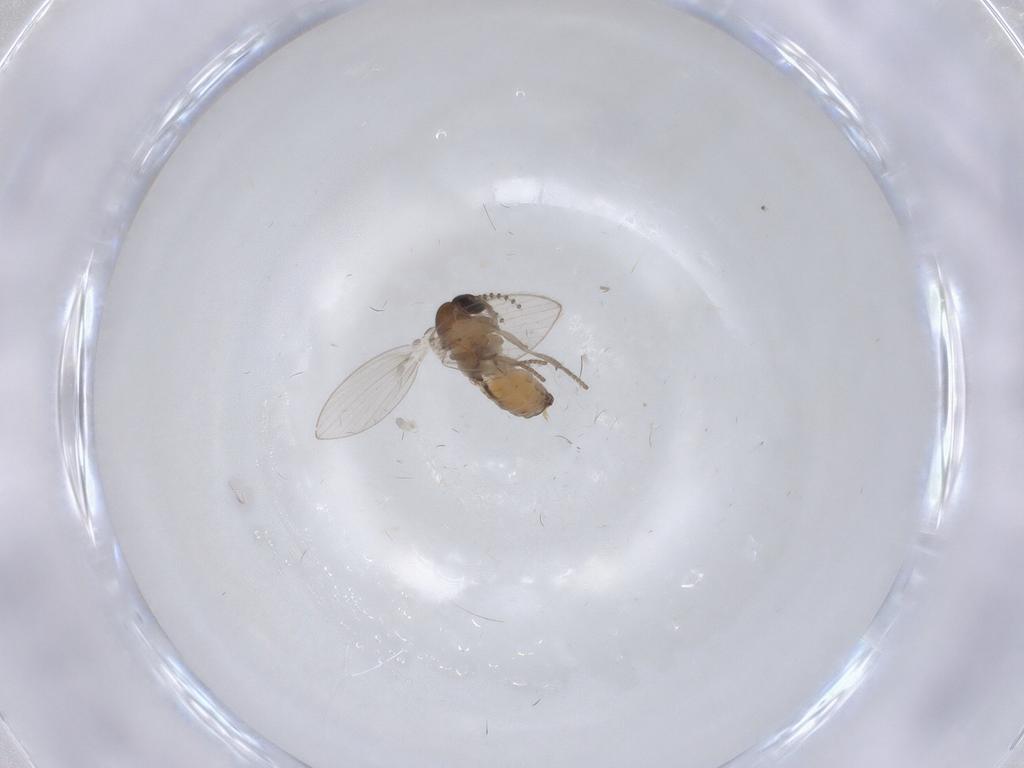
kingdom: Animalia
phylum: Arthropoda
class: Insecta
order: Diptera
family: Psychodidae
